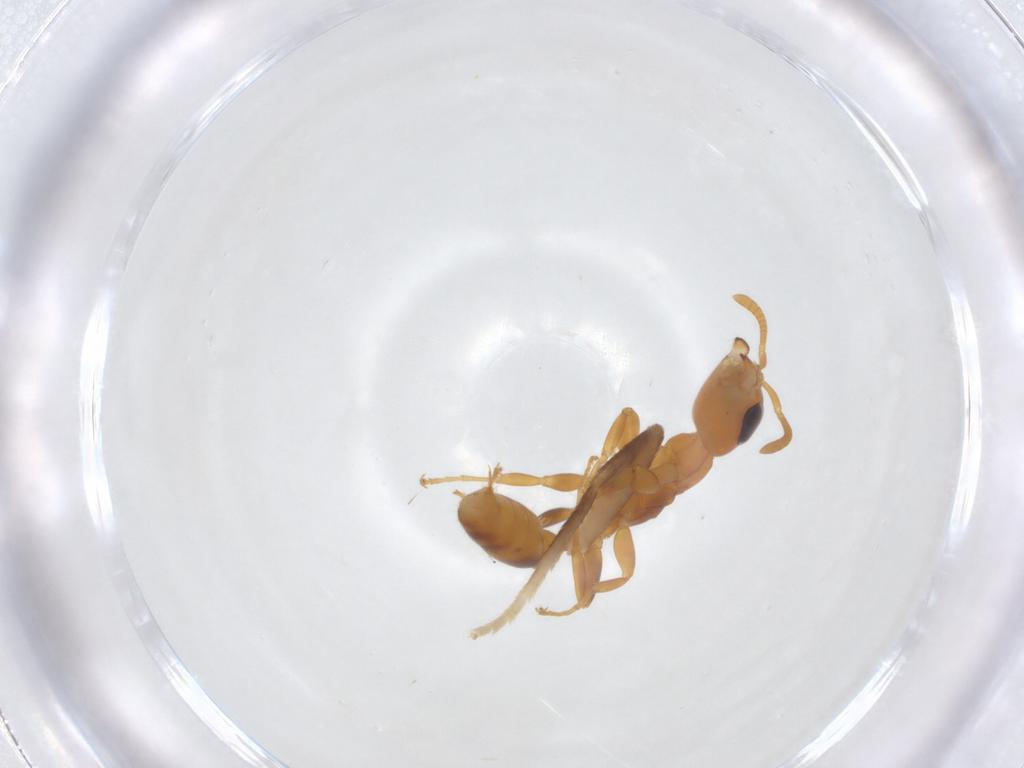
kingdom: Animalia
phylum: Arthropoda
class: Insecta
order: Hymenoptera
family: Formicidae
